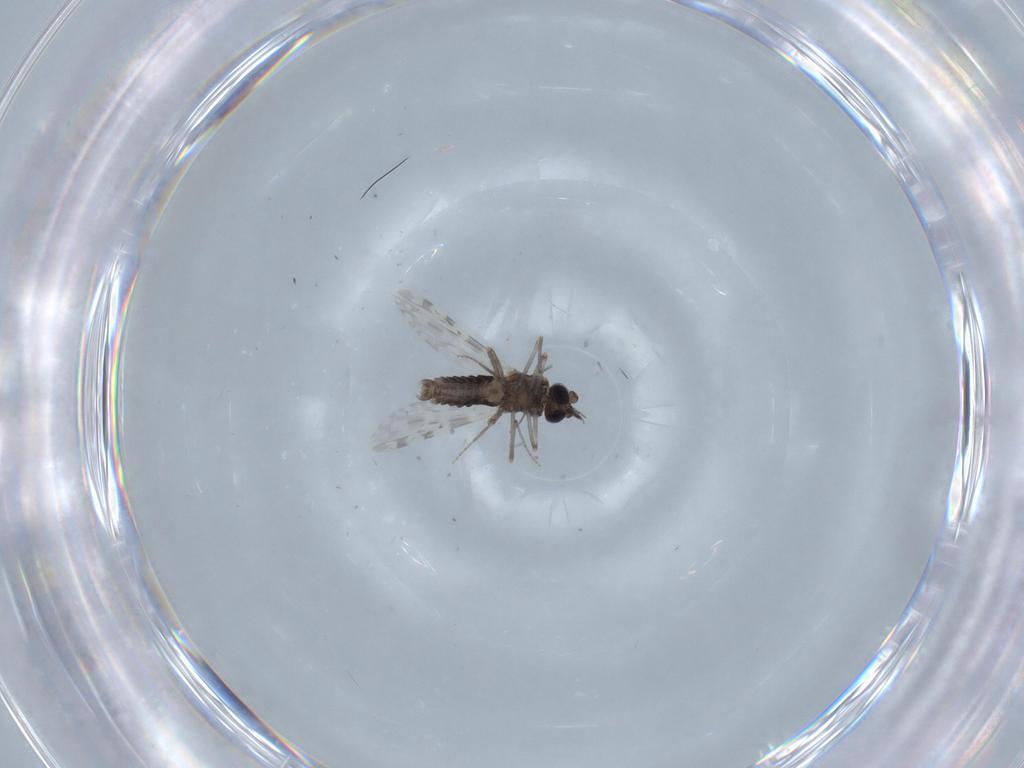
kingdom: Animalia
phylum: Arthropoda
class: Insecta
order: Diptera
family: Ceratopogonidae
